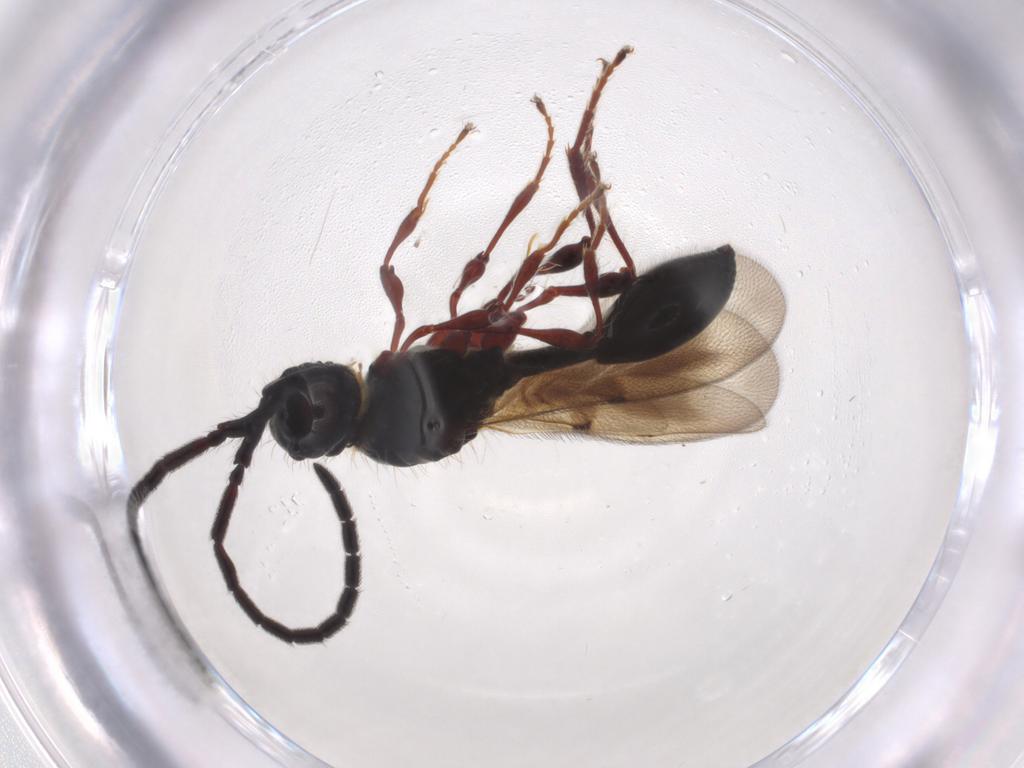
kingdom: Animalia
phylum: Arthropoda
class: Insecta
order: Hymenoptera
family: Diapriidae
